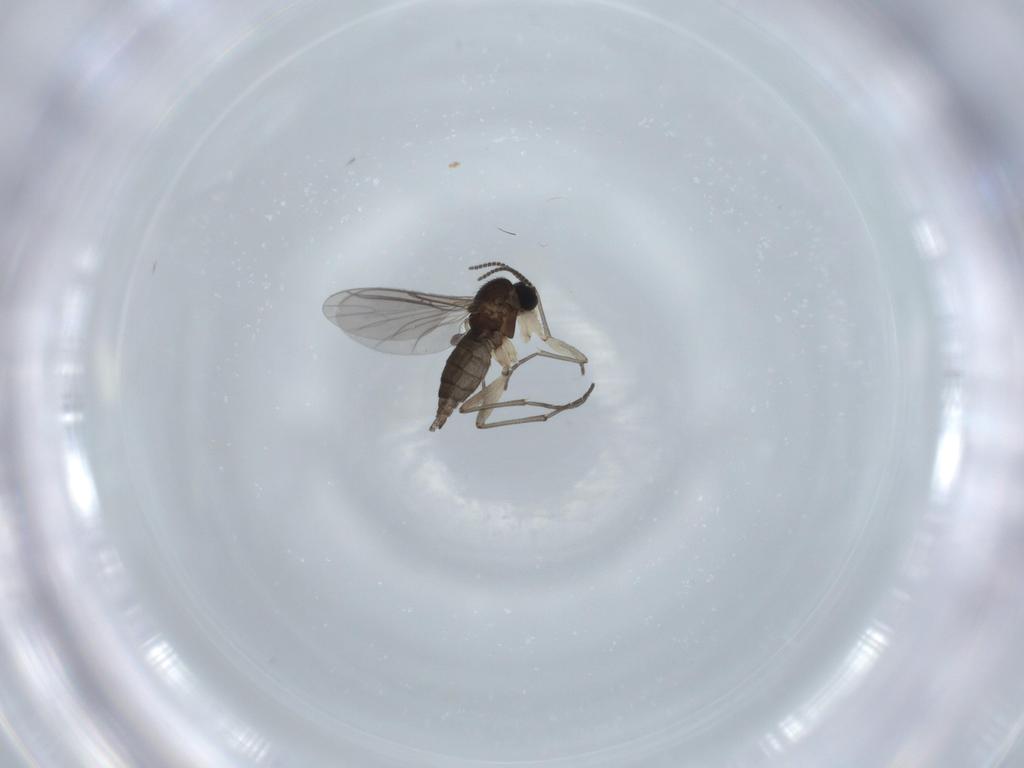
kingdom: Animalia
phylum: Arthropoda
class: Insecta
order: Diptera
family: Sciaridae
